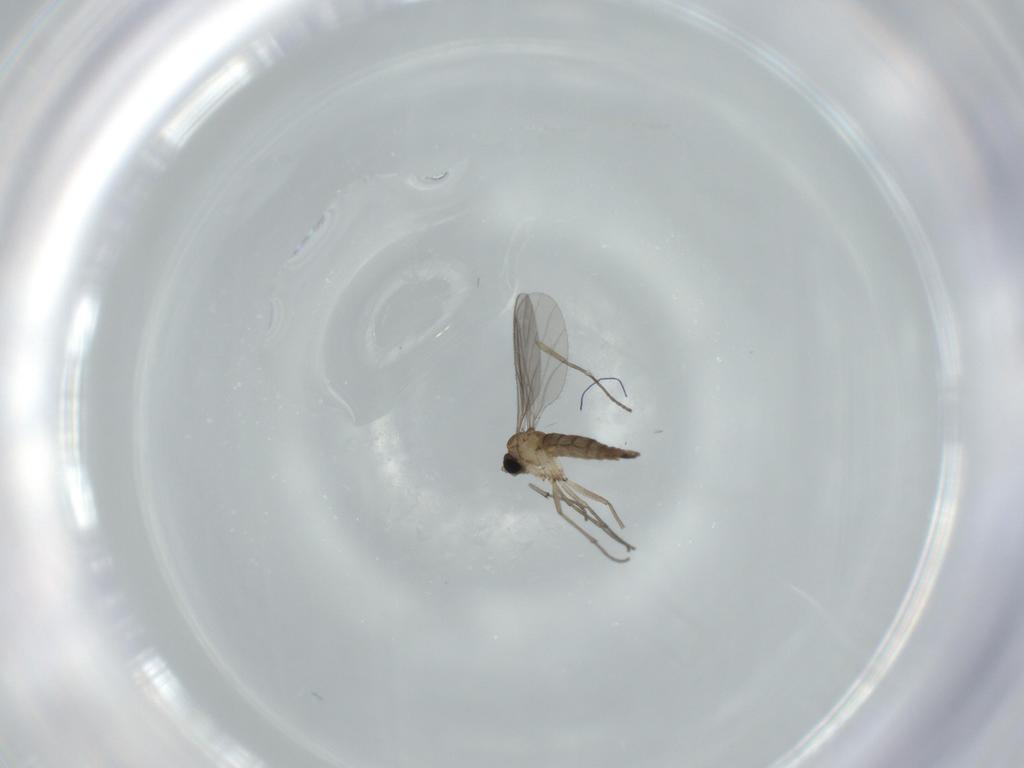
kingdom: Animalia
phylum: Arthropoda
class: Insecta
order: Diptera
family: Sciaridae
